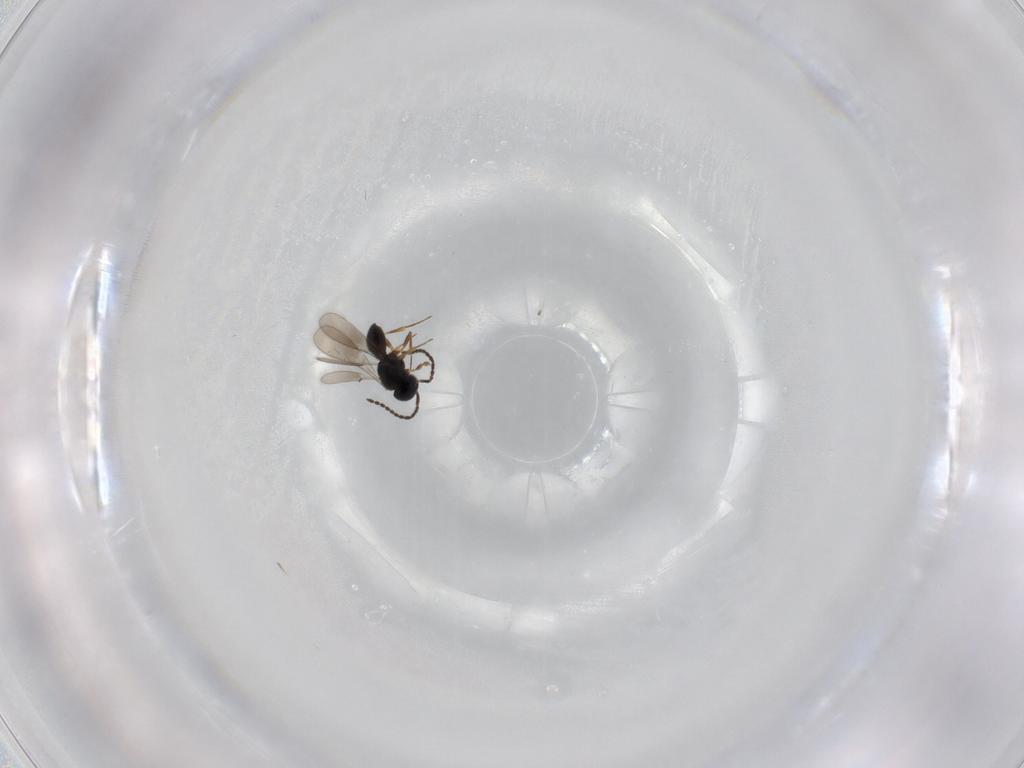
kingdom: Animalia
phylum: Arthropoda
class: Insecta
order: Hymenoptera
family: Scelionidae
